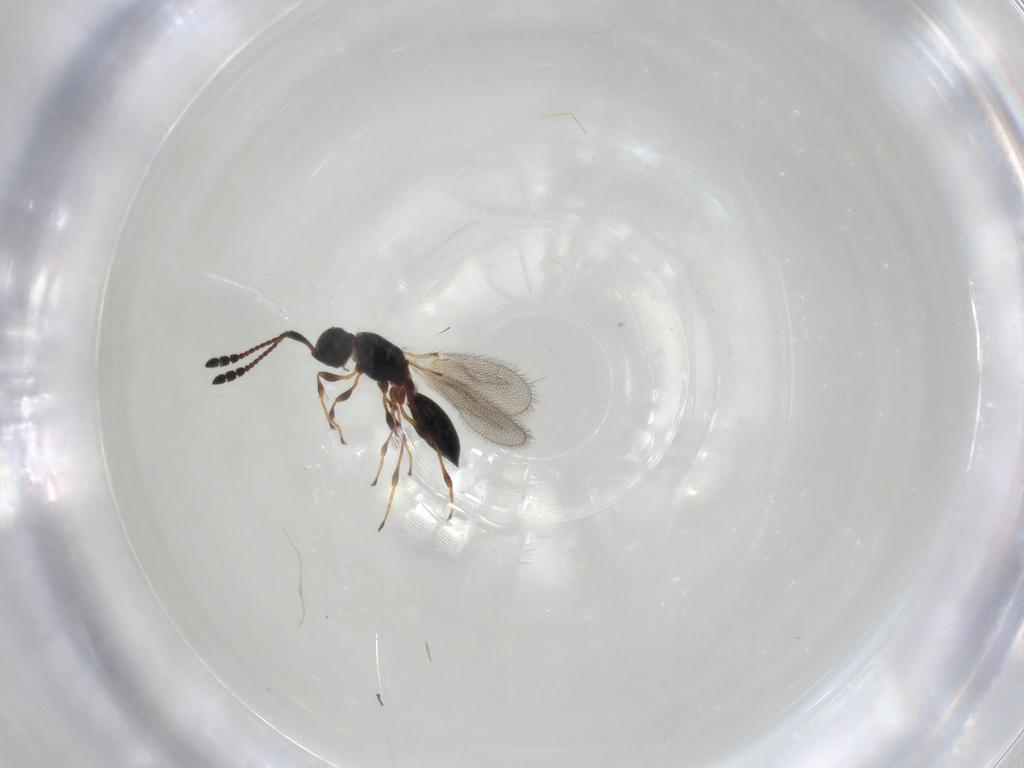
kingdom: Animalia
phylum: Arthropoda
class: Insecta
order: Hymenoptera
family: Diapriidae
